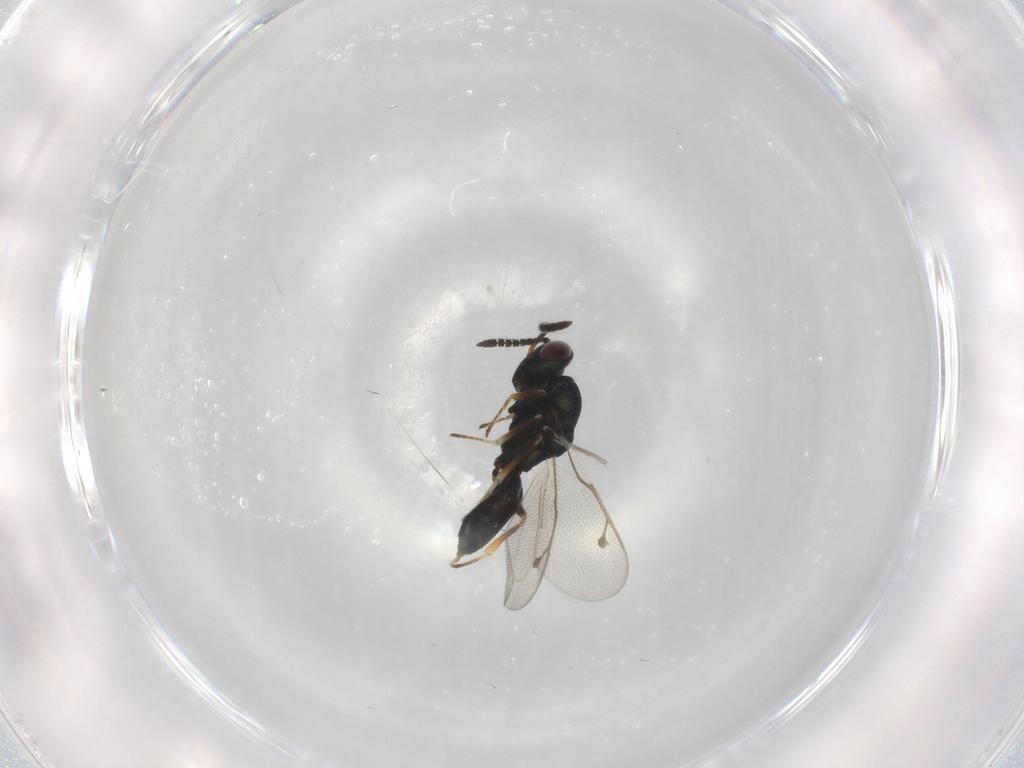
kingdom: Animalia
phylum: Arthropoda
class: Insecta
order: Hymenoptera
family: Pteromalidae
